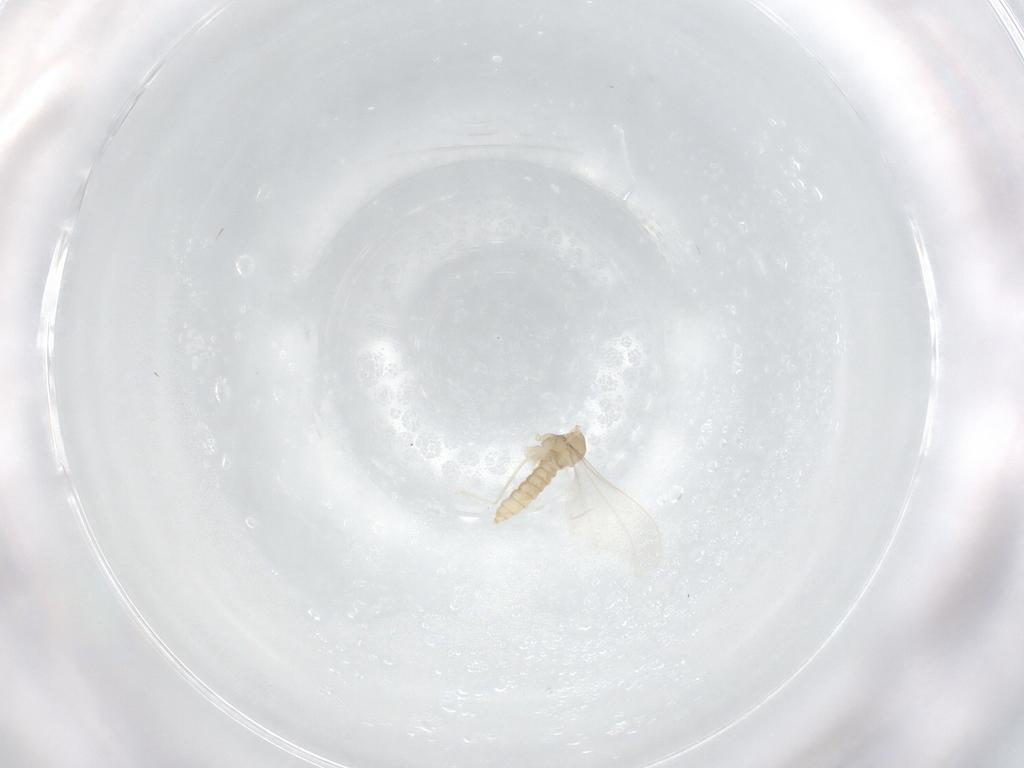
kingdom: Animalia
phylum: Arthropoda
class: Insecta
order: Diptera
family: Cecidomyiidae
